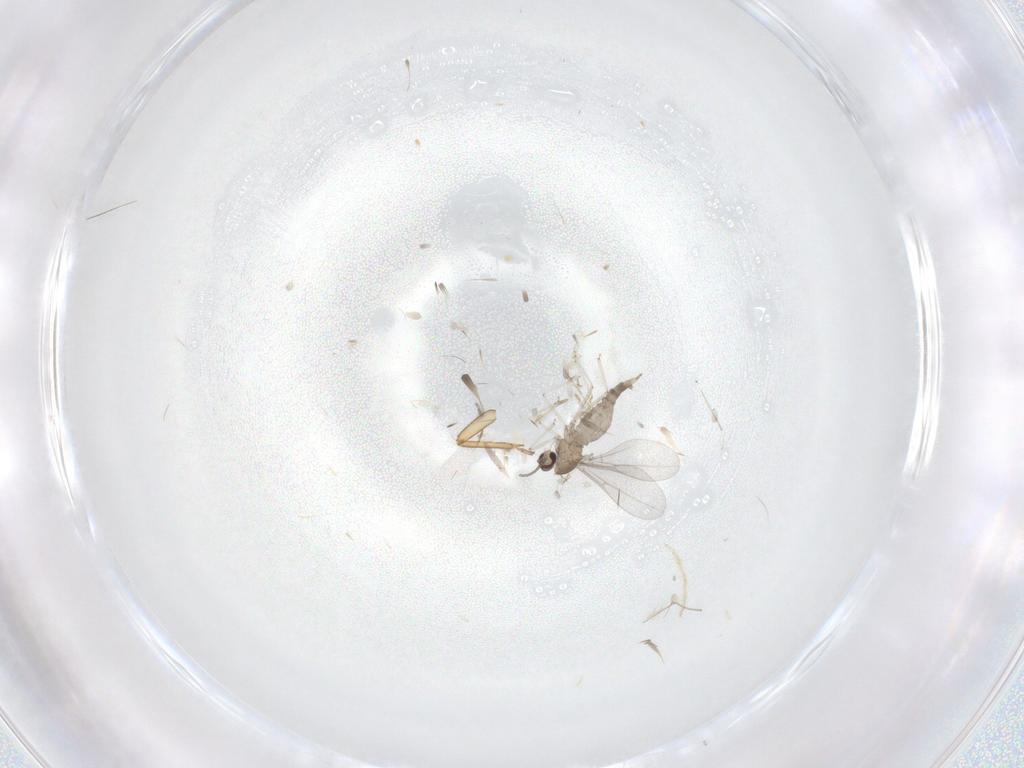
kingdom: Animalia
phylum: Arthropoda
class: Insecta
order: Diptera
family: Cecidomyiidae
